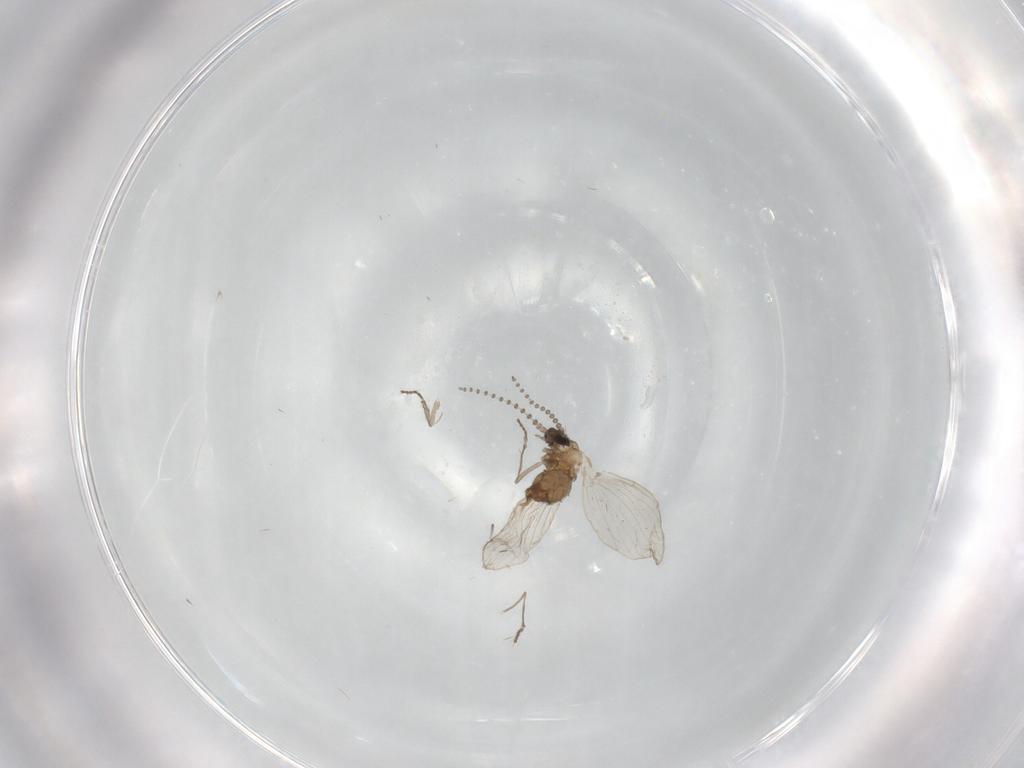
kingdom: Animalia
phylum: Arthropoda
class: Insecta
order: Diptera
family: Psychodidae
